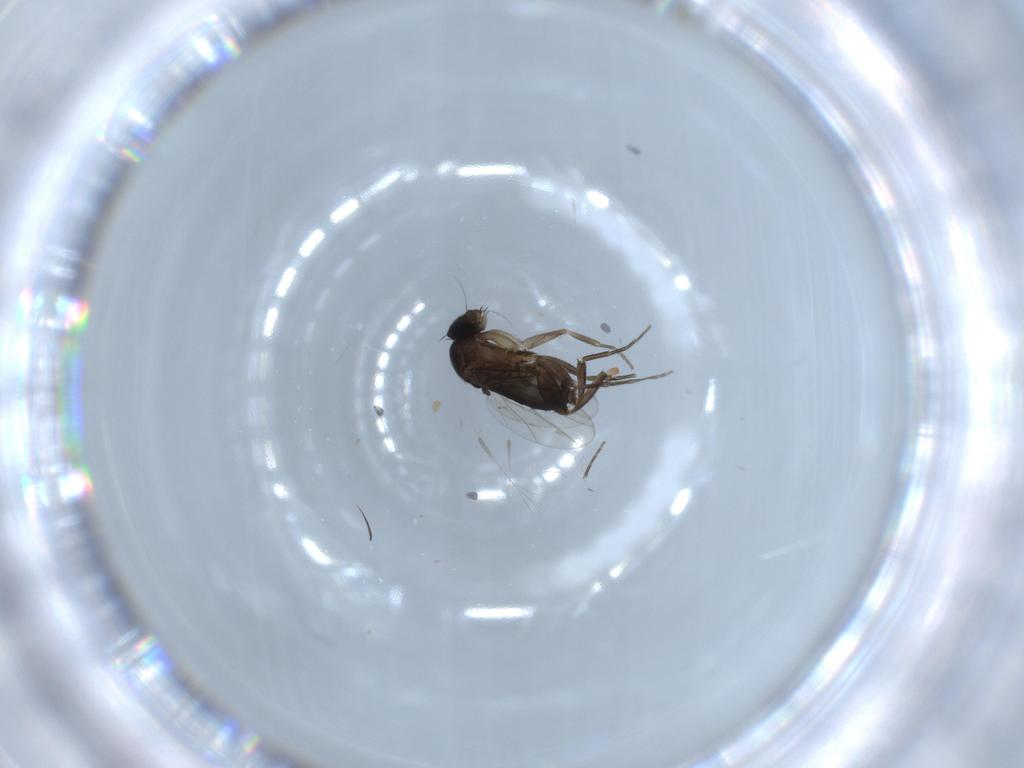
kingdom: Animalia
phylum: Arthropoda
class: Insecta
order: Diptera
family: Phoridae
